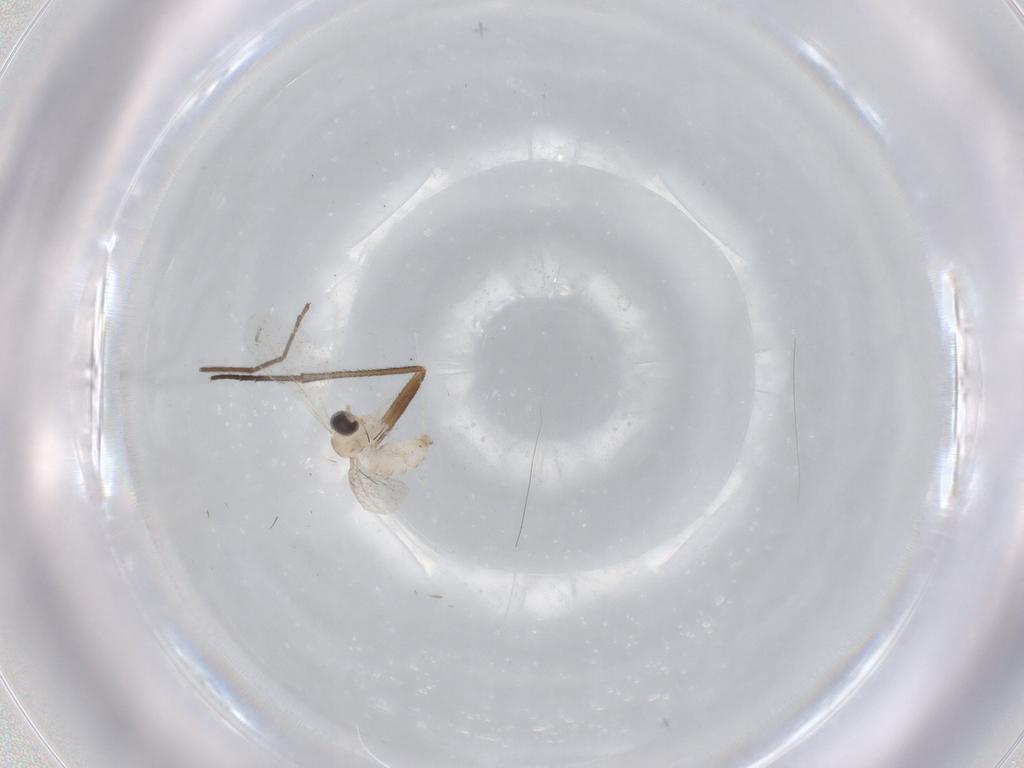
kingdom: Animalia
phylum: Arthropoda
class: Insecta
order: Diptera
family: Cecidomyiidae
